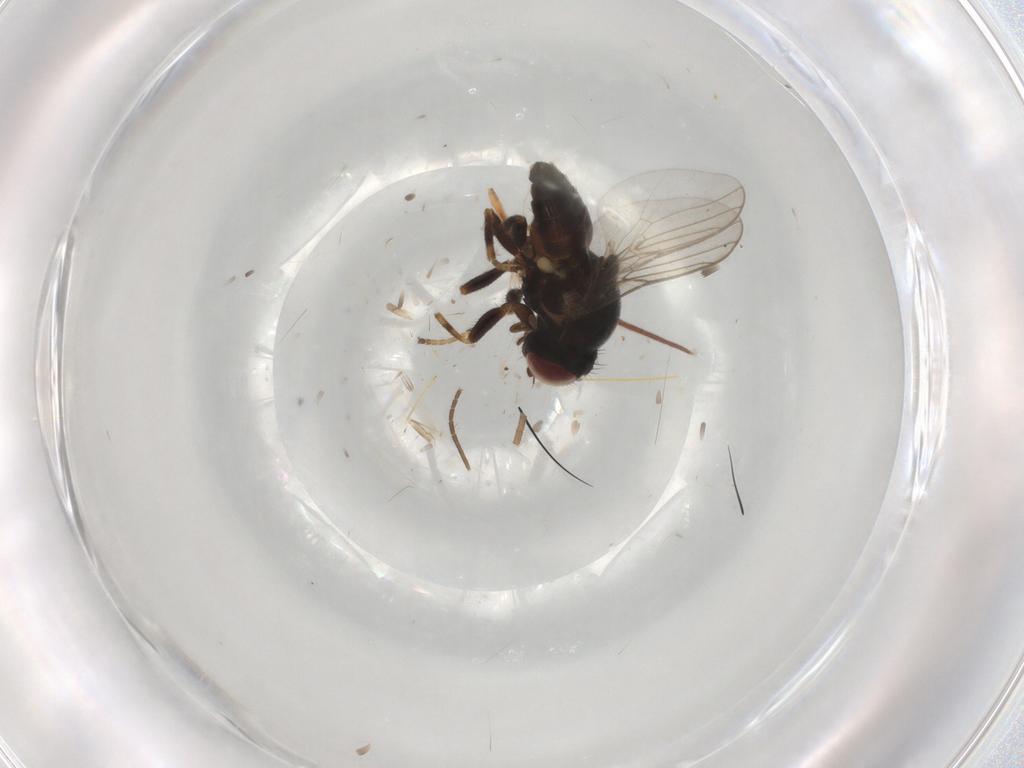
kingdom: Animalia
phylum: Arthropoda
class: Insecta
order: Diptera
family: Chloropidae
